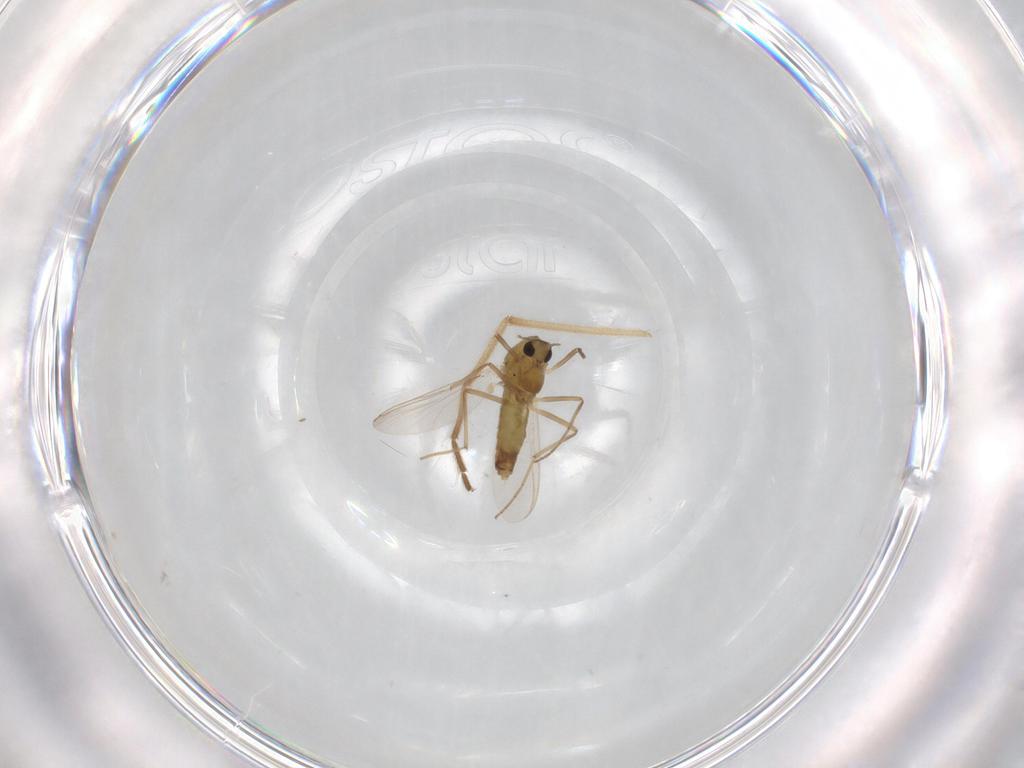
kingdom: Animalia
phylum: Arthropoda
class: Insecta
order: Diptera
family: Chironomidae
